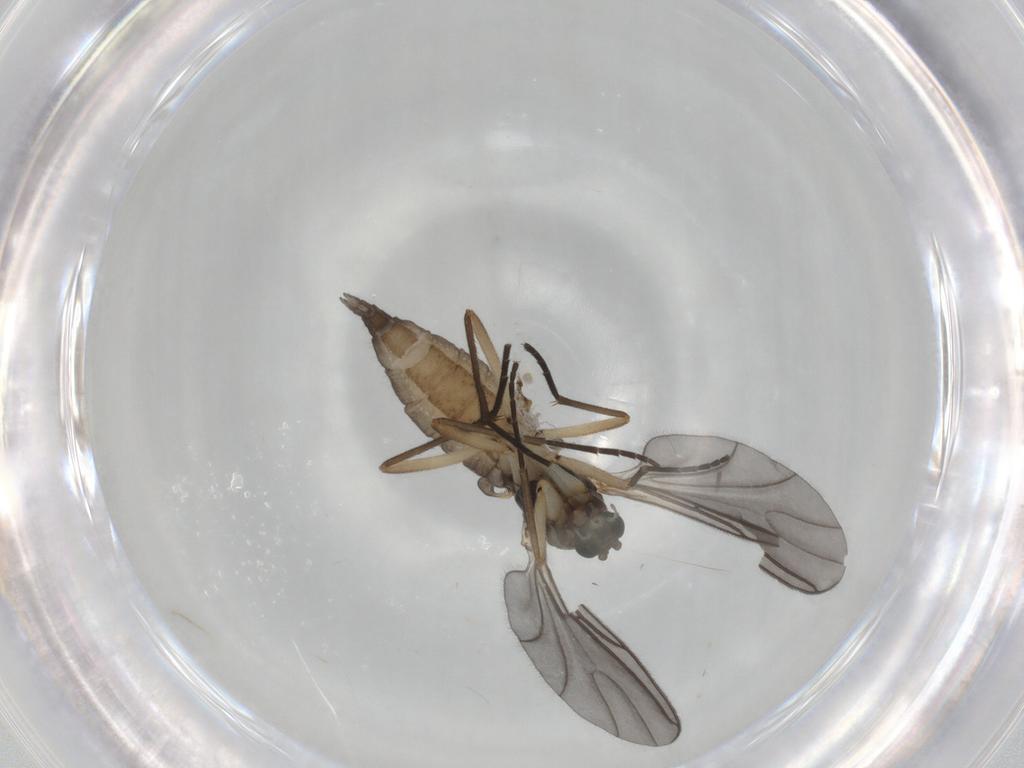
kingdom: Animalia
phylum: Arthropoda
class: Insecta
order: Diptera
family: Sciaridae
